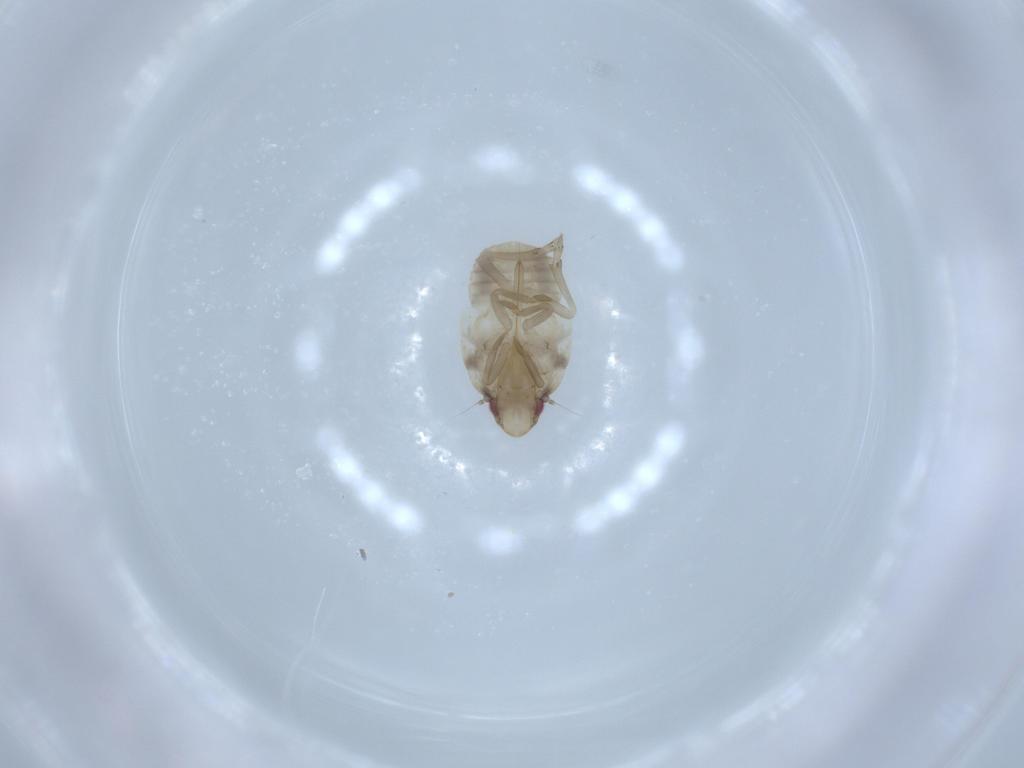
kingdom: Animalia
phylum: Arthropoda
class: Insecta
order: Hemiptera
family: Flatidae
